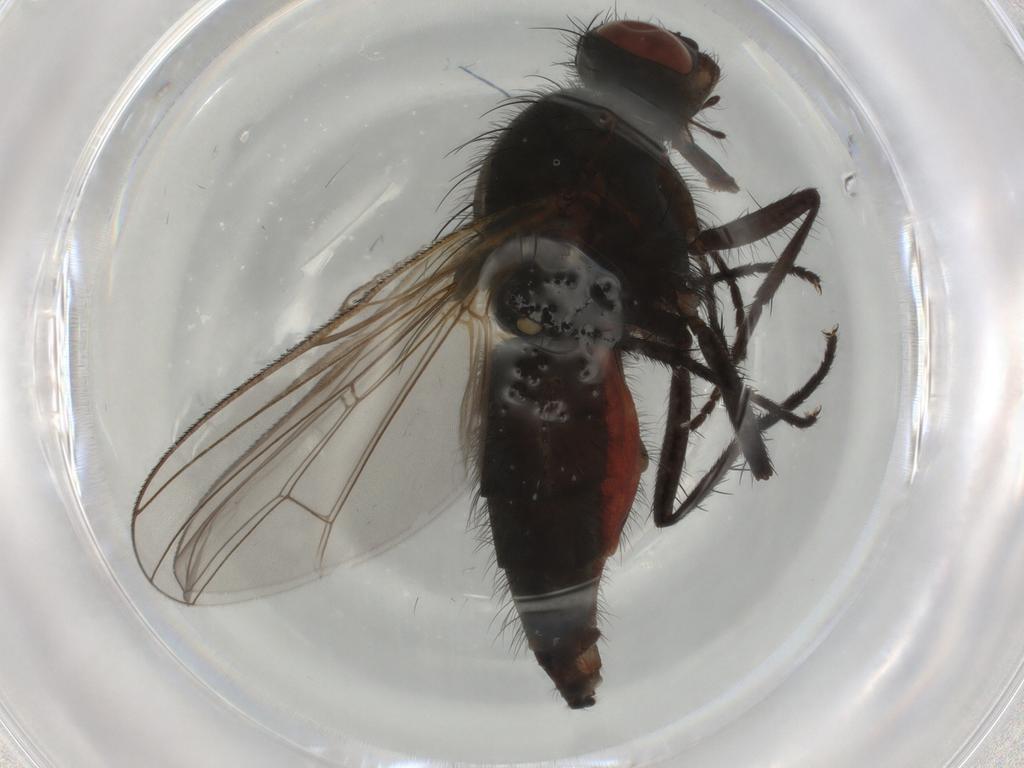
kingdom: Animalia
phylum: Arthropoda
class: Insecta
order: Diptera
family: Anthomyiidae
